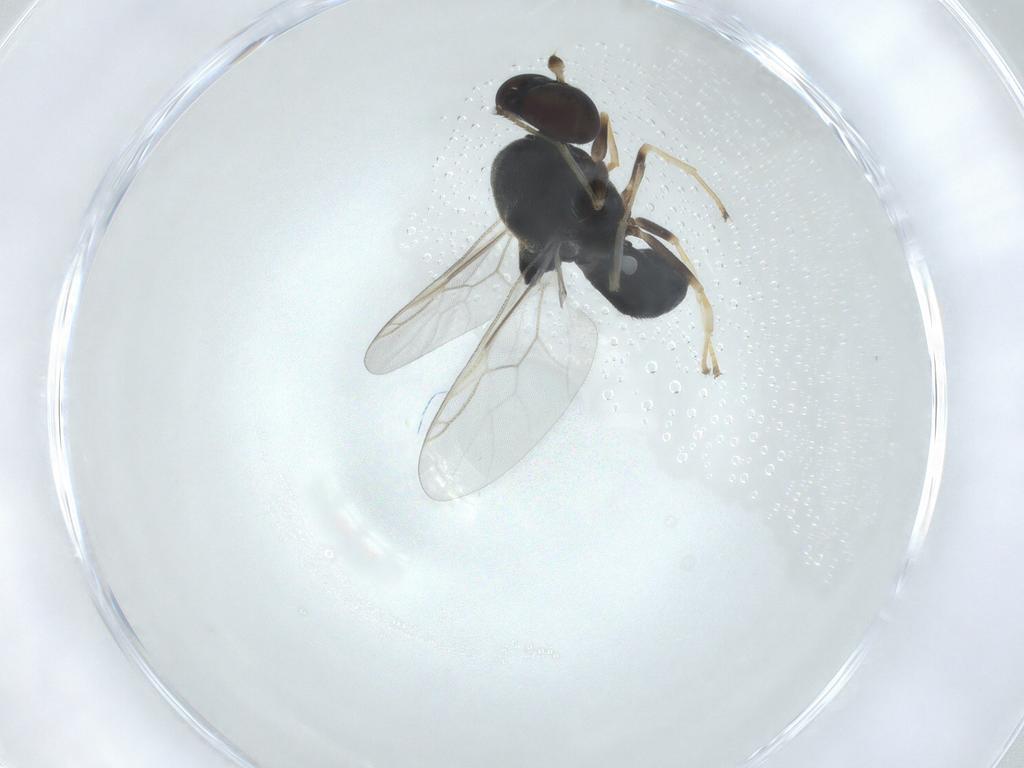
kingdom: Animalia
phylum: Arthropoda
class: Insecta
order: Diptera
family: Stratiomyidae
